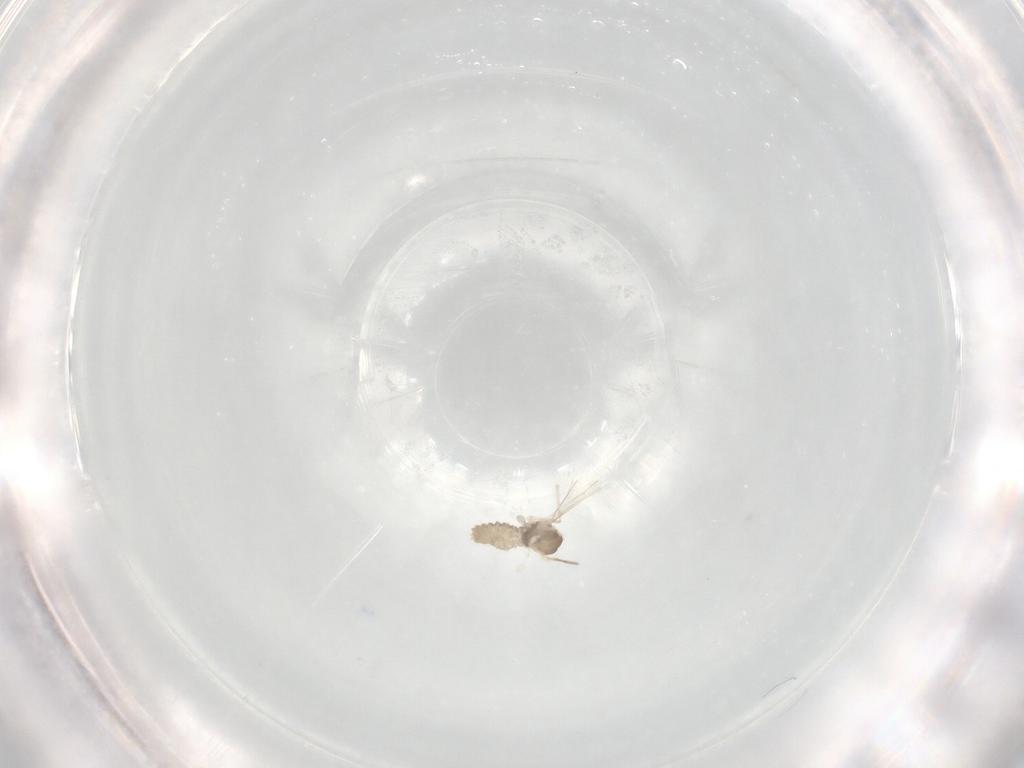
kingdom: Animalia
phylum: Arthropoda
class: Insecta
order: Diptera
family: Cecidomyiidae
